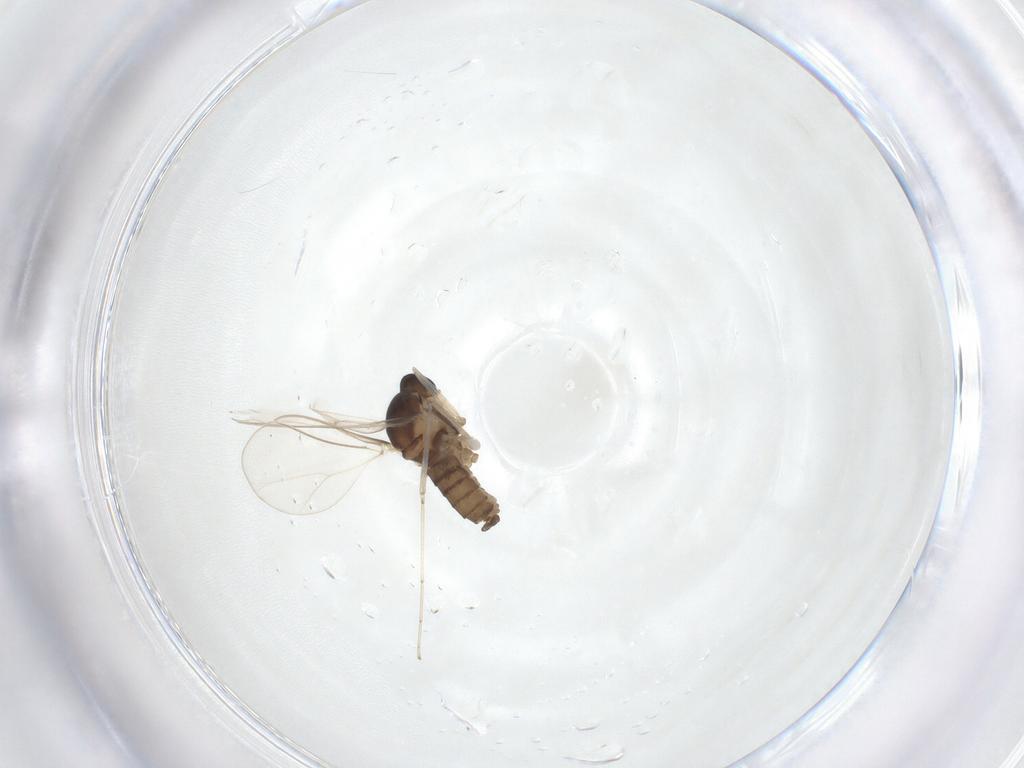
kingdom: Animalia
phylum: Arthropoda
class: Insecta
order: Diptera
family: Cecidomyiidae
